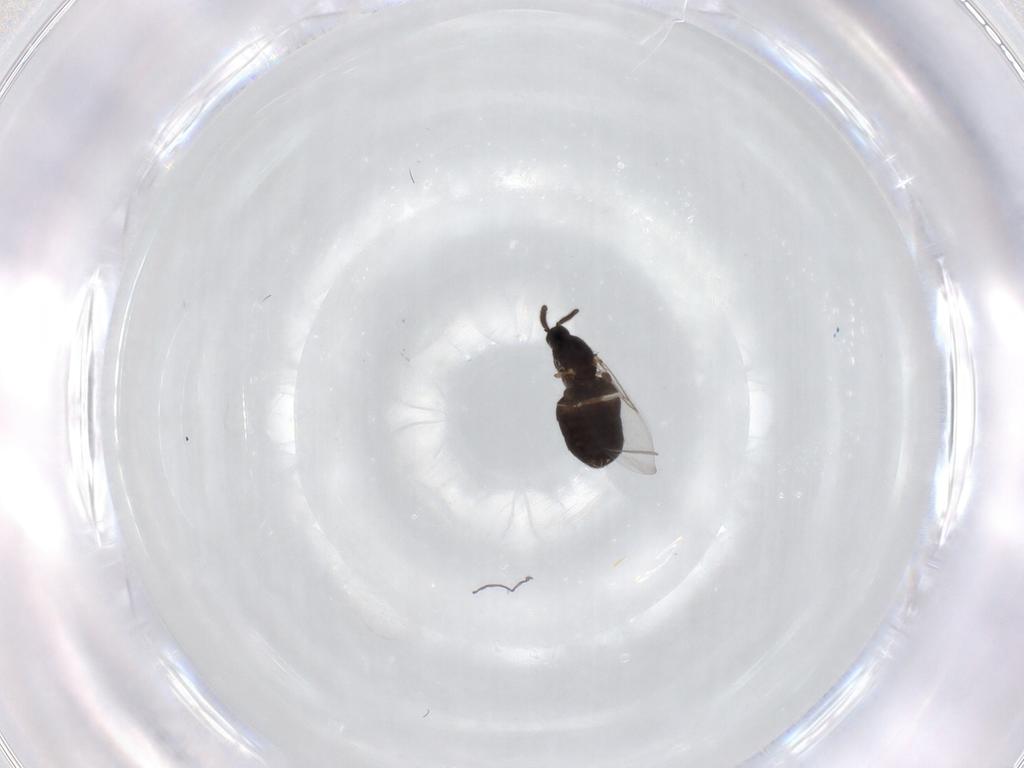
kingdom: Animalia
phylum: Arthropoda
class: Insecta
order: Diptera
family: Calliphoridae
